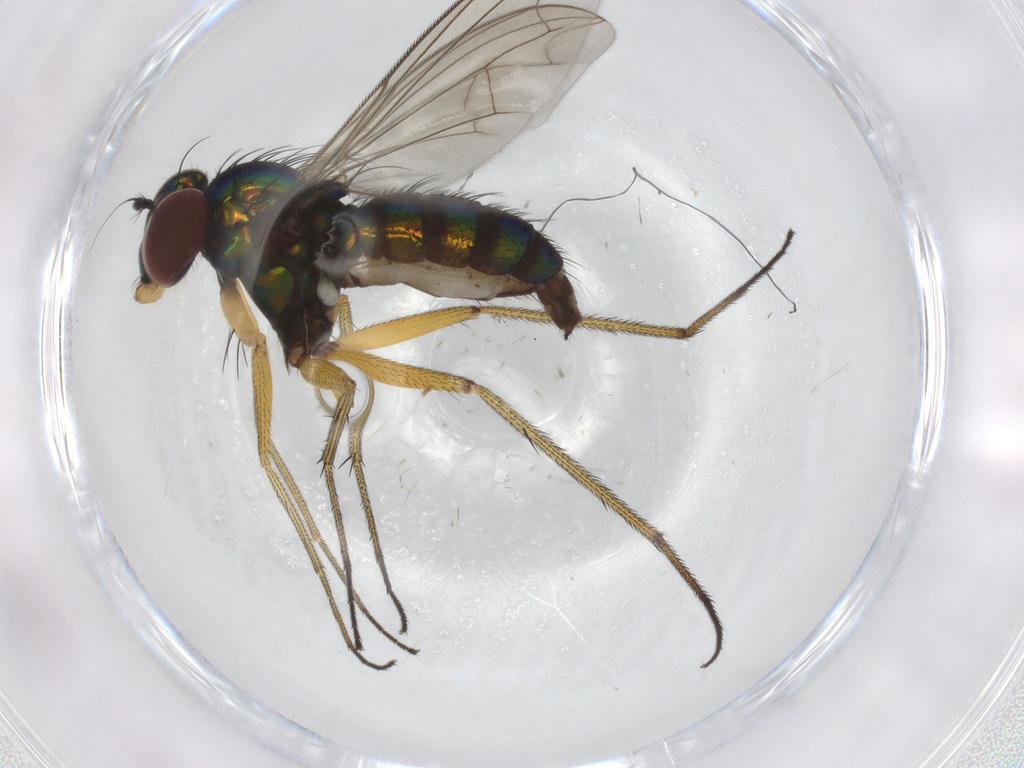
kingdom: Animalia
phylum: Arthropoda
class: Insecta
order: Diptera
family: Dolichopodidae
